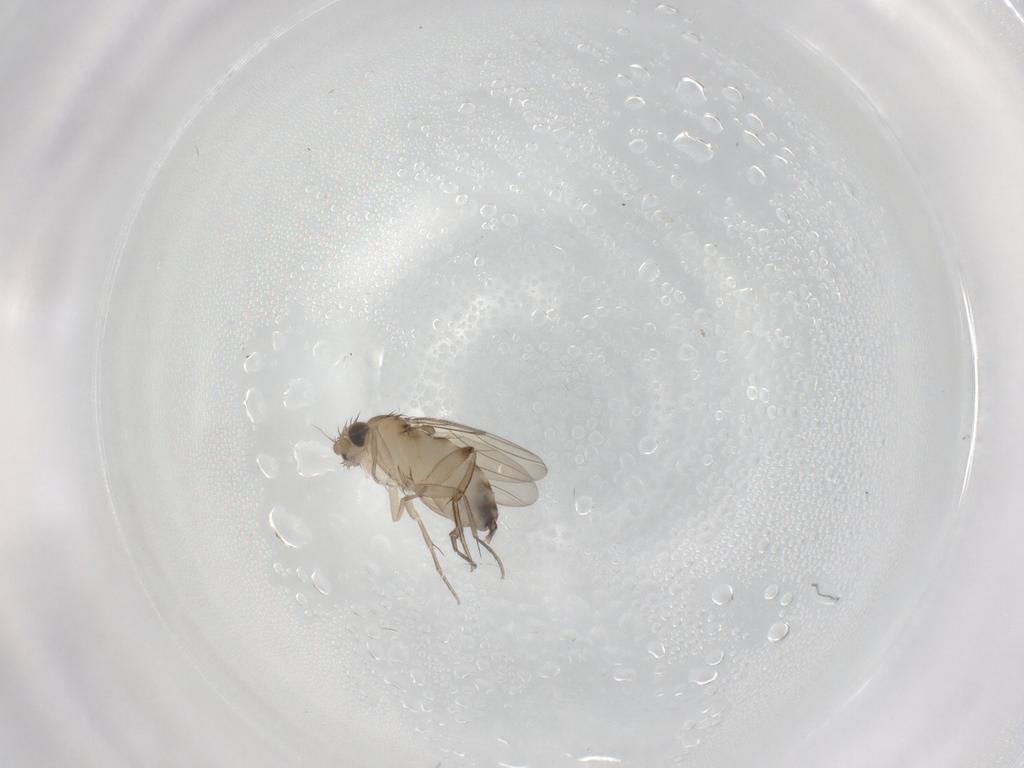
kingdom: Animalia
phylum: Arthropoda
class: Insecta
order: Diptera
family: Phoridae
